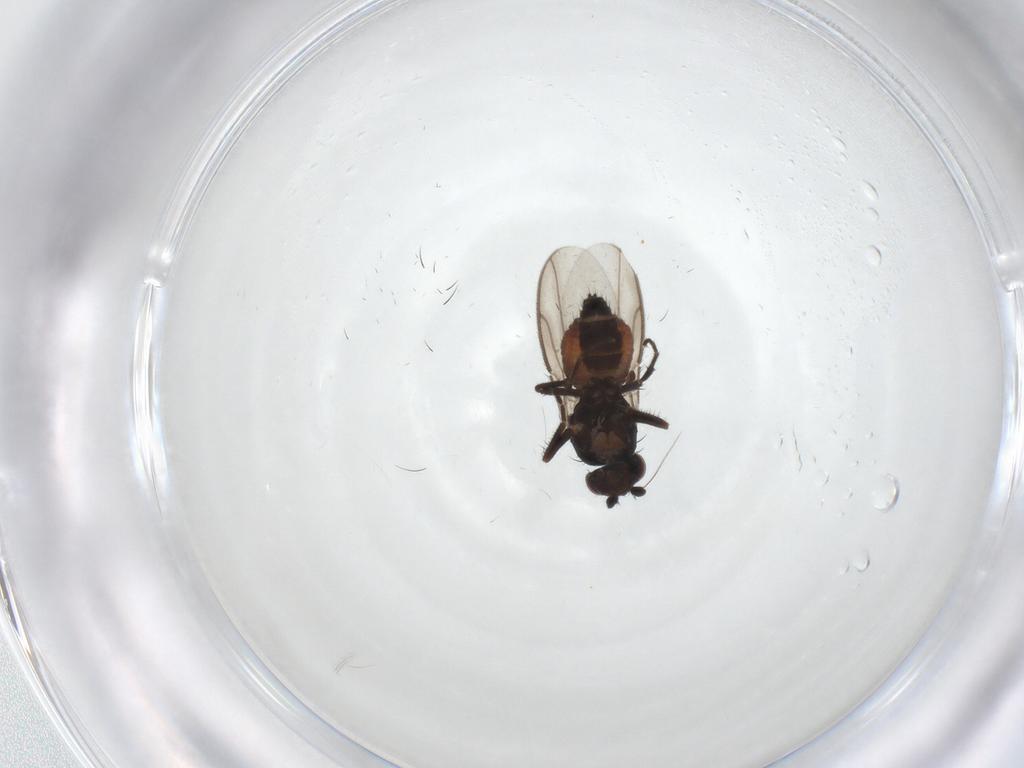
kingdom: Animalia
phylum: Arthropoda
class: Insecta
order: Diptera
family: Sphaeroceridae
